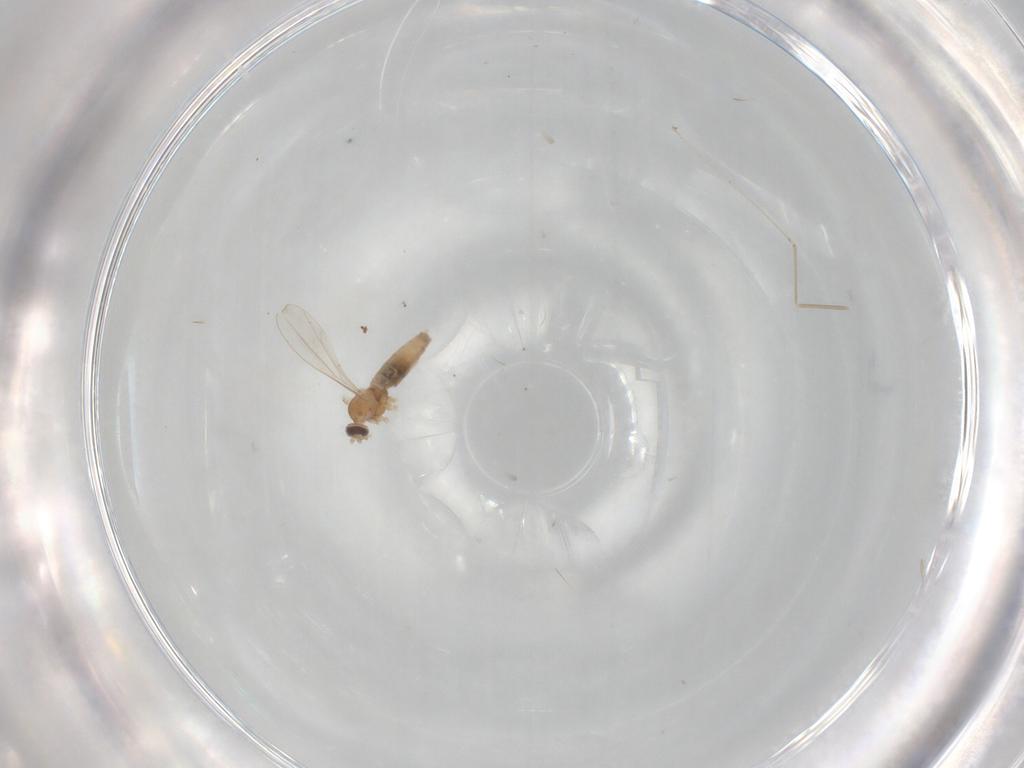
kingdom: Animalia
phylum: Arthropoda
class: Insecta
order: Diptera
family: Cecidomyiidae
